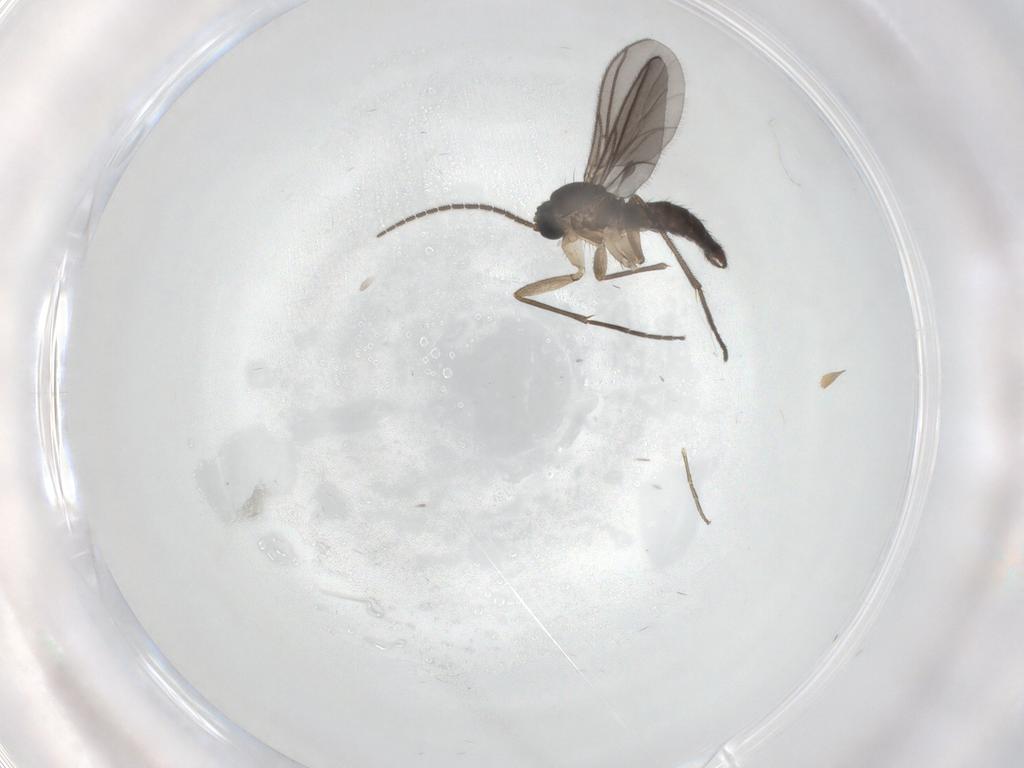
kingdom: Animalia
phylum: Arthropoda
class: Insecta
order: Diptera
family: Sciaridae
